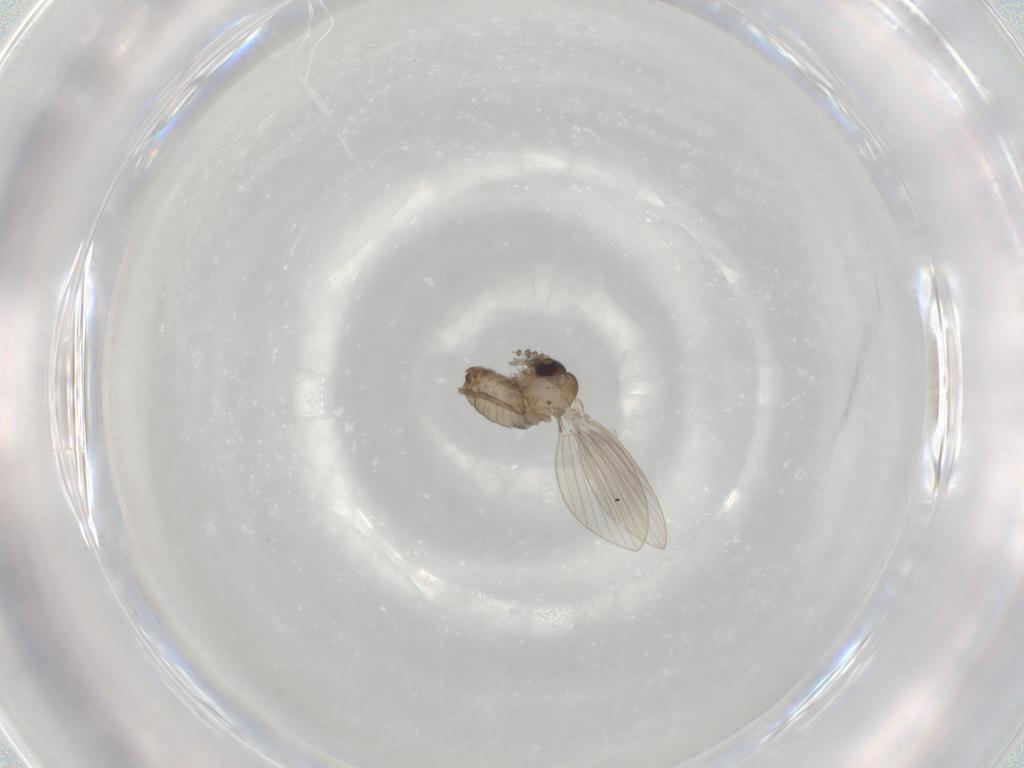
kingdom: Animalia
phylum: Arthropoda
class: Insecta
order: Diptera
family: Psychodidae
